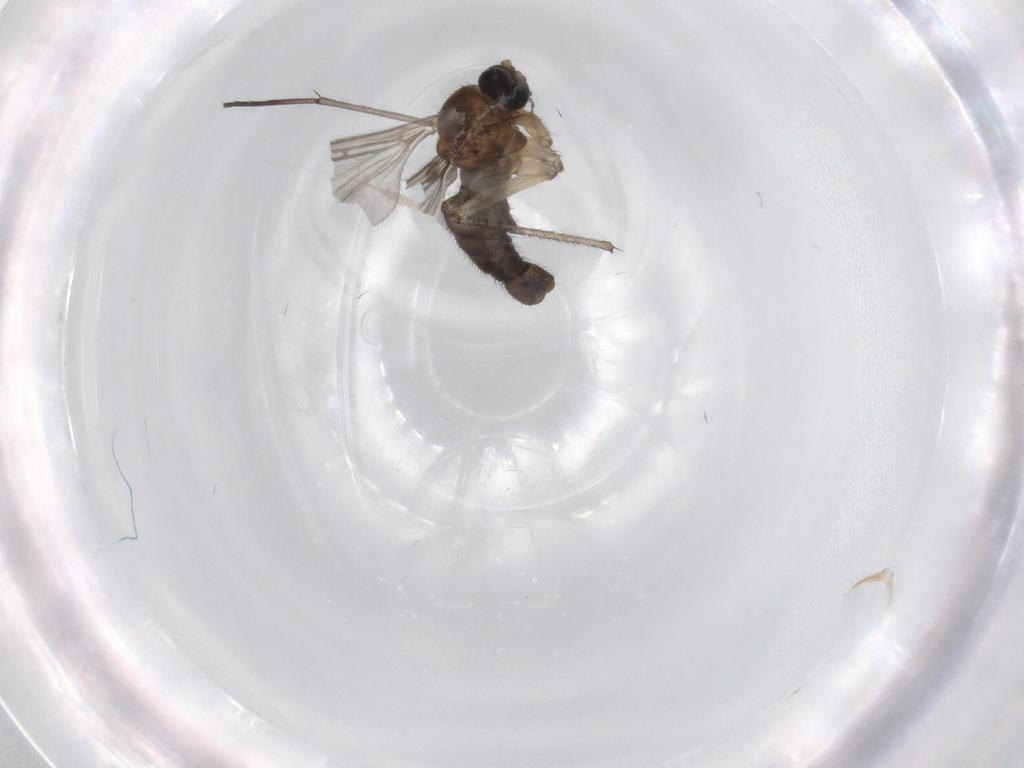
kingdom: Animalia
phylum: Arthropoda
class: Insecta
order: Diptera
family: Sciaridae
